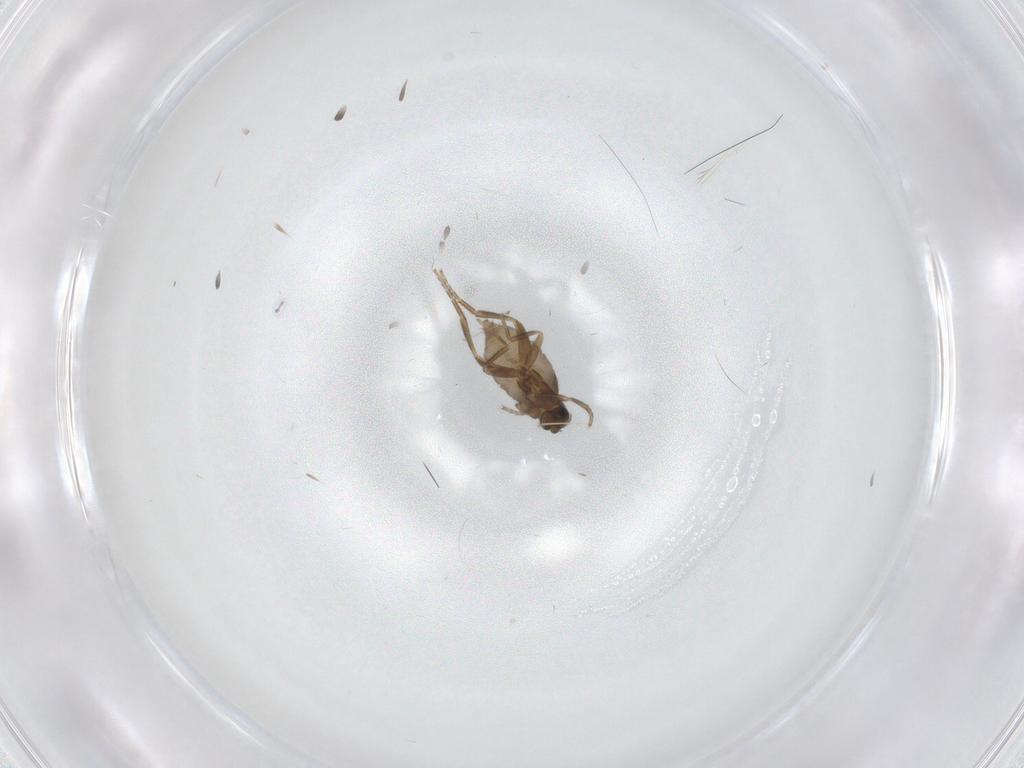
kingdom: Animalia
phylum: Arthropoda
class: Insecta
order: Diptera
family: Phoridae
